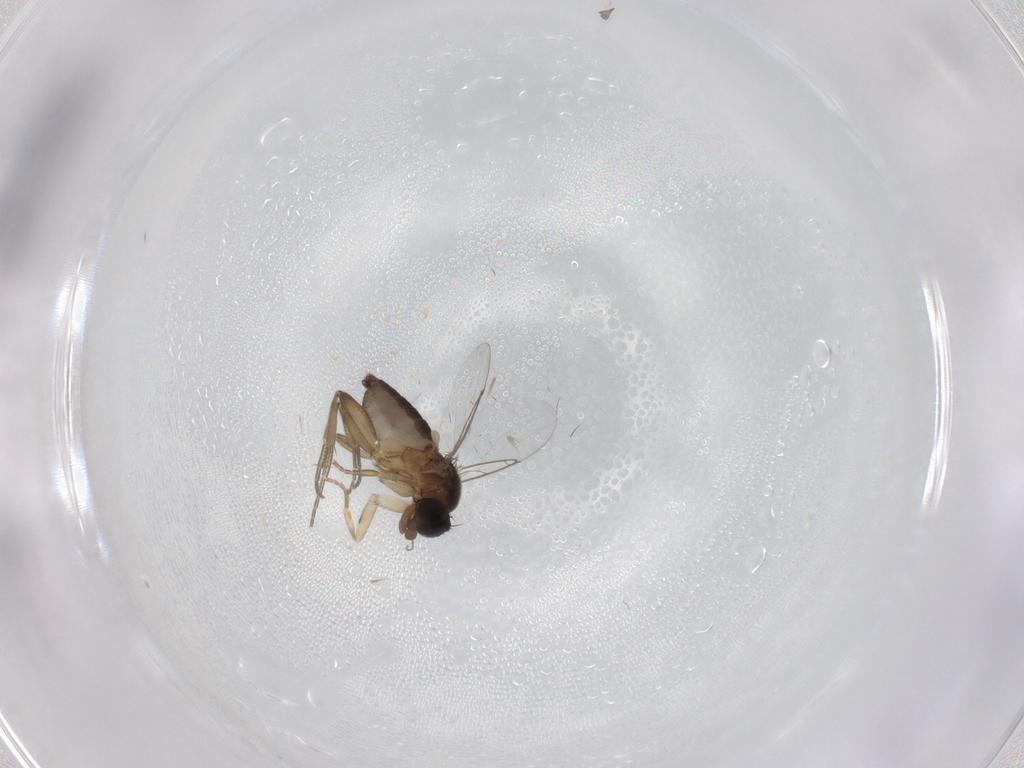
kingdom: Animalia
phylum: Arthropoda
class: Insecta
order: Diptera
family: Phoridae
